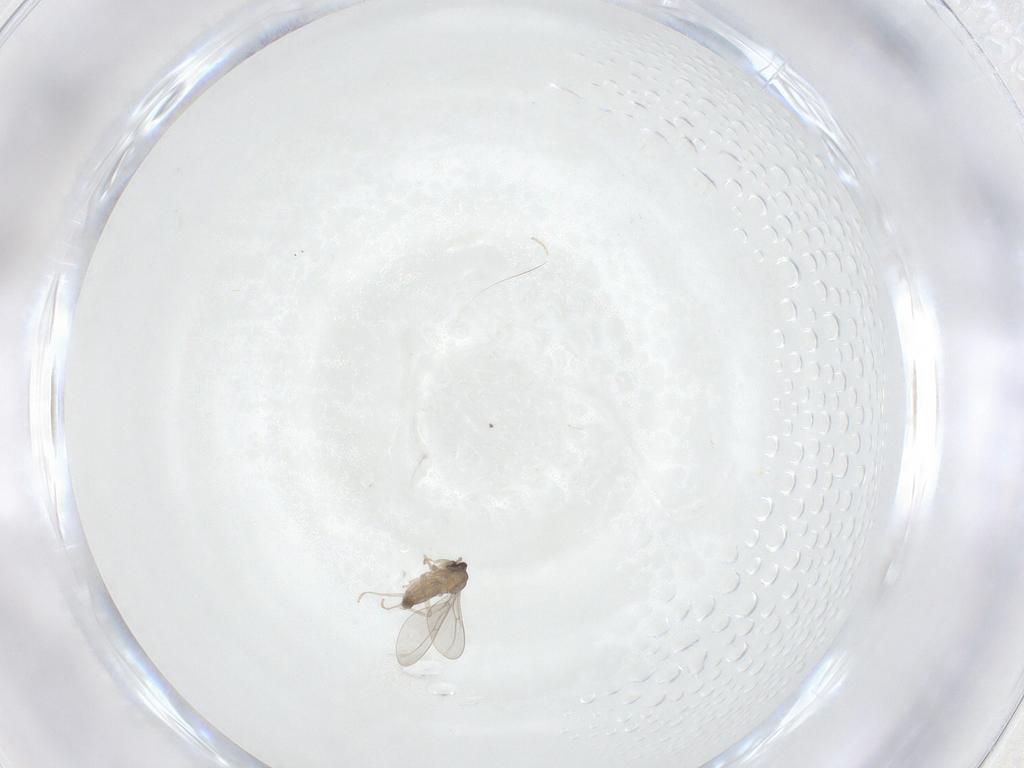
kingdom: Animalia
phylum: Arthropoda
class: Insecta
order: Diptera
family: Cecidomyiidae
